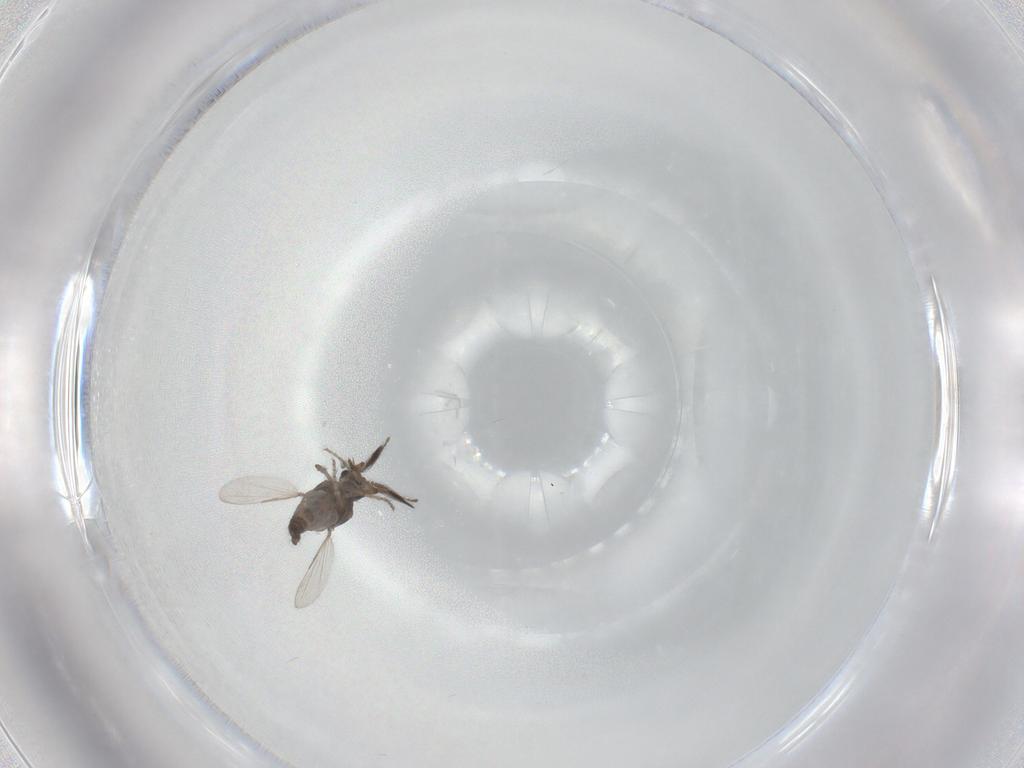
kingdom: Animalia
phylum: Arthropoda
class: Insecta
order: Diptera
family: Ceratopogonidae
